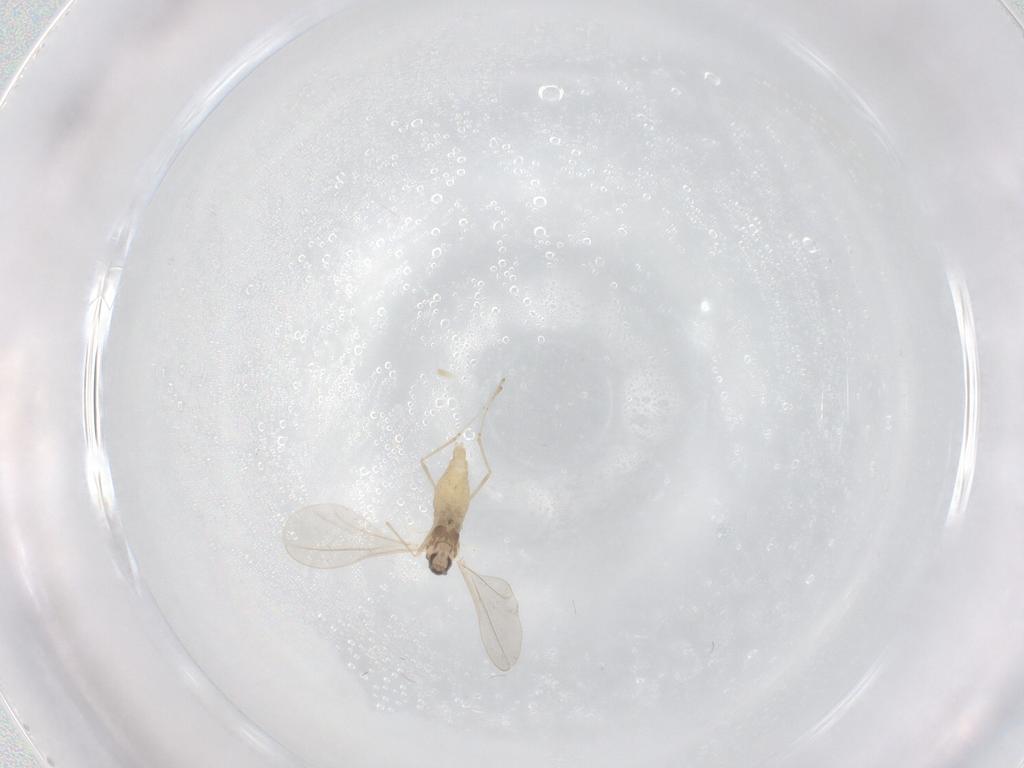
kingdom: Animalia
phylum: Arthropoda
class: Insecta
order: Diptera
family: Cecidomyiidae
